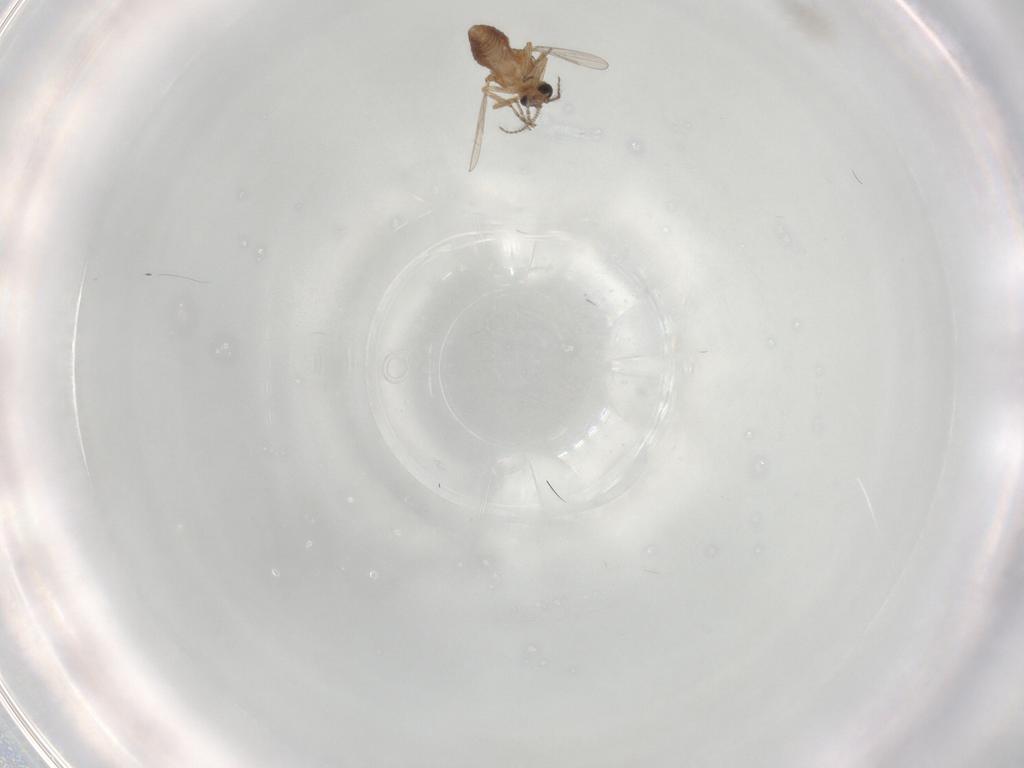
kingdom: Animalia
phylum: Arthropoda
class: Insecta
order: Diptera
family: Ceratopogonidae
